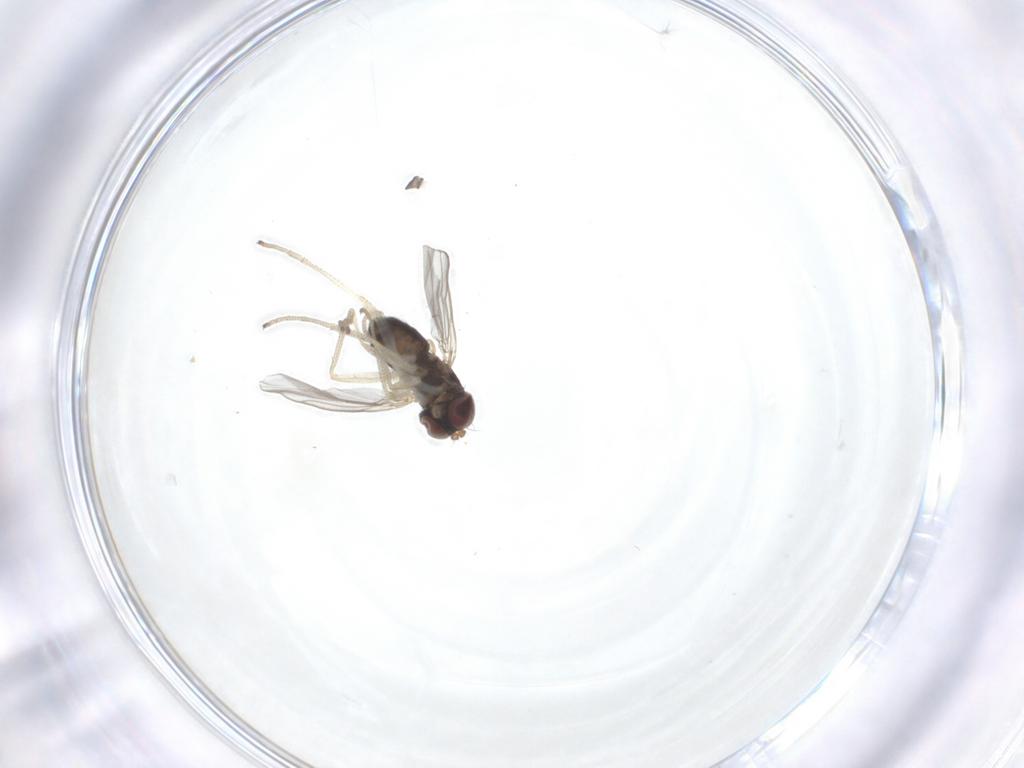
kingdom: Animalia
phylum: Arthropoda
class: Insecta
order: Diptera
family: Dolichopodidae
